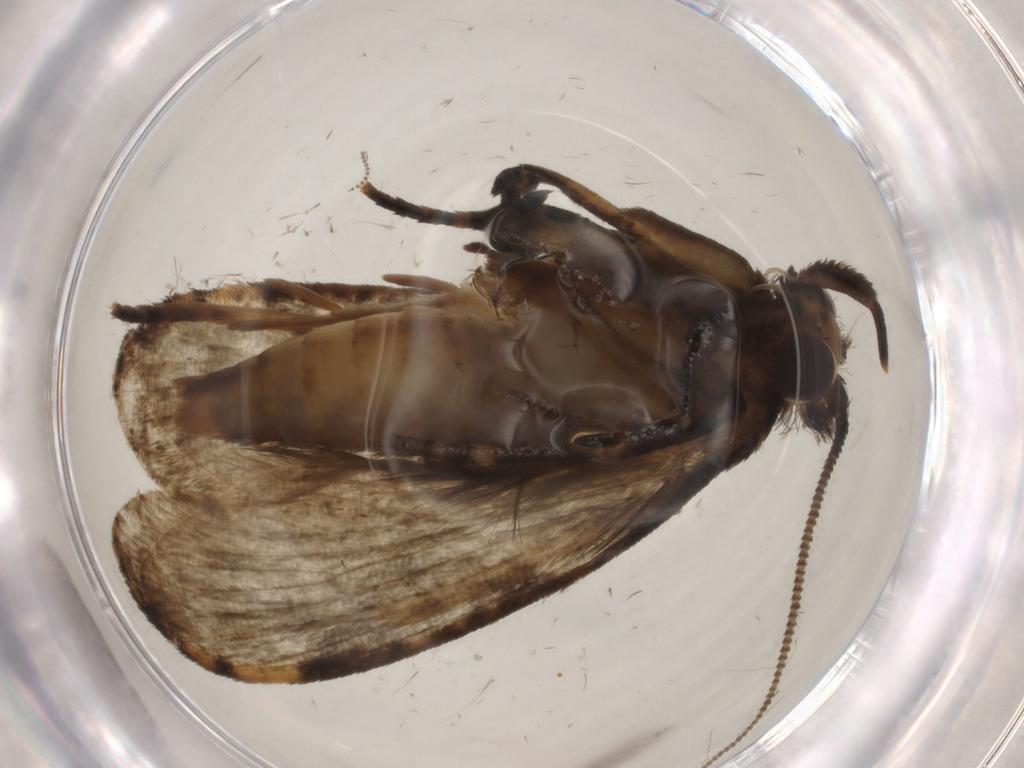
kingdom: Animalia
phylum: Arthropoda
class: Insecta
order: Lepidoptera
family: Tineidae
